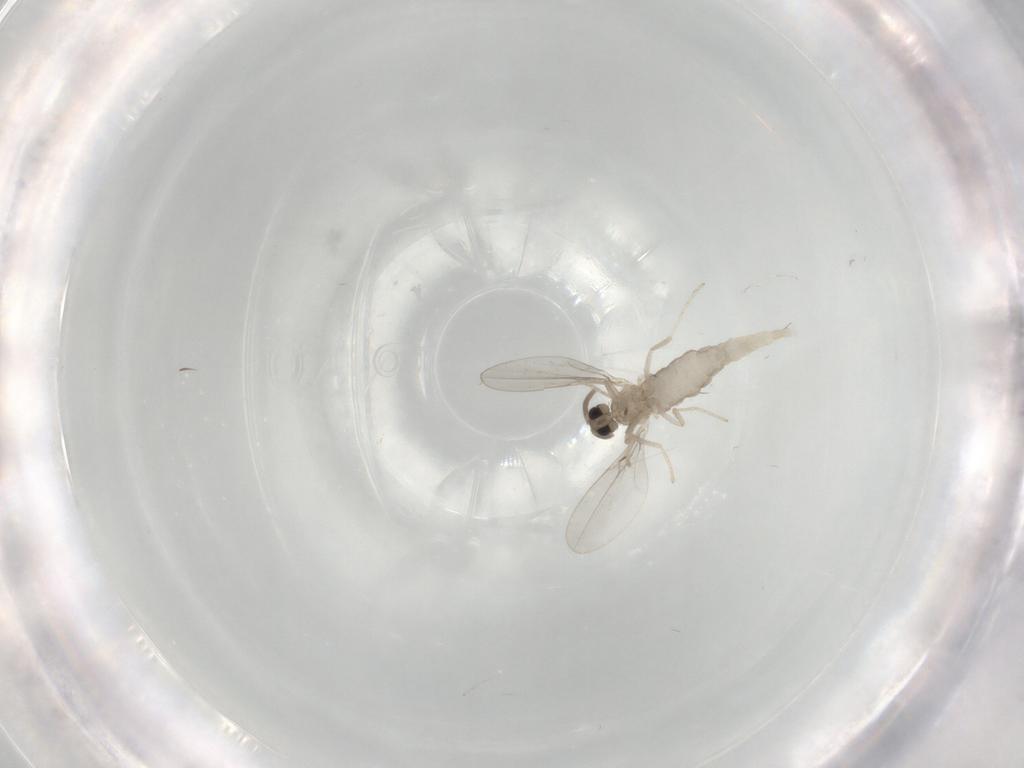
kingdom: Animalia
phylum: Arthropoda
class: Insecta
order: Diptera
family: Cecidomyiidae
